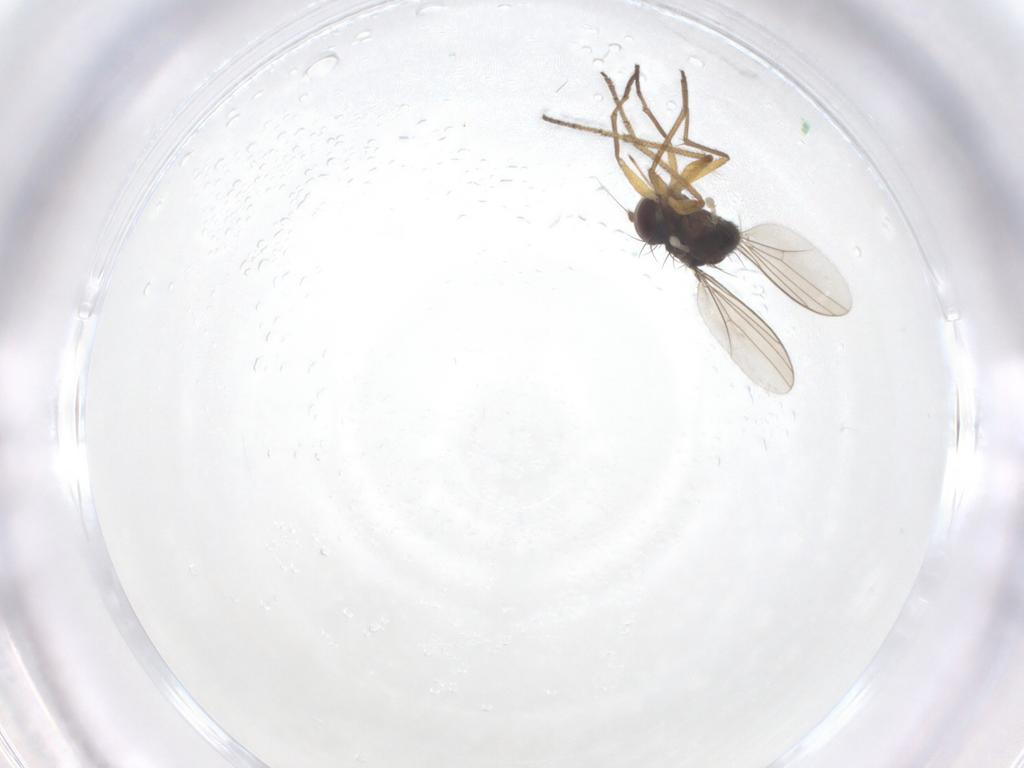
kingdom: Animalia
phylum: Arthropoda
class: Insecta
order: Diptera
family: Dolichopodidae
